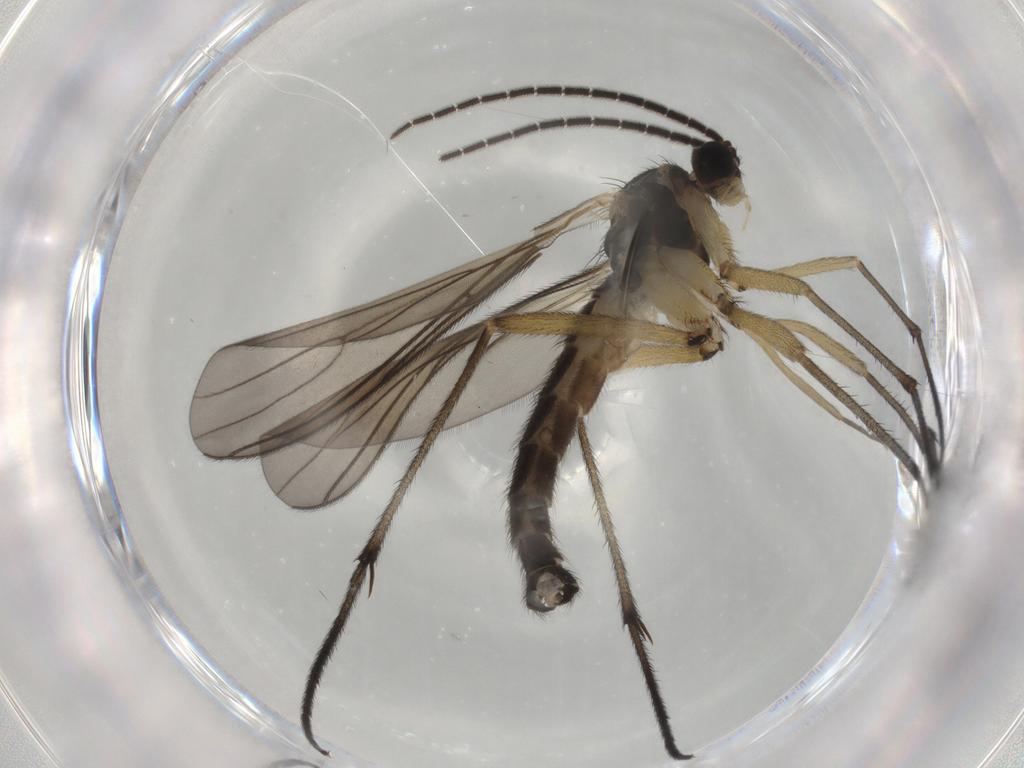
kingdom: Animalia
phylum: Arthropoda
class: Insecta
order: Diptera
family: Sciaridae
